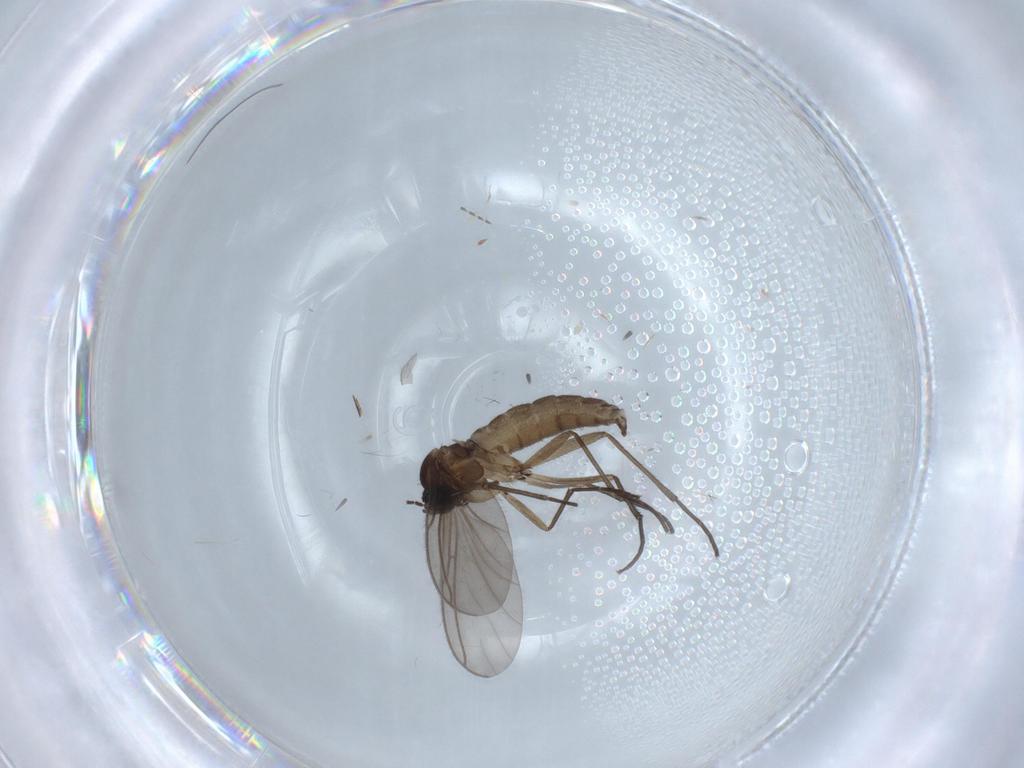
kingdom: Animalia
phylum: Arthropoda
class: Insecta
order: Diptera
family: Sciaridae
